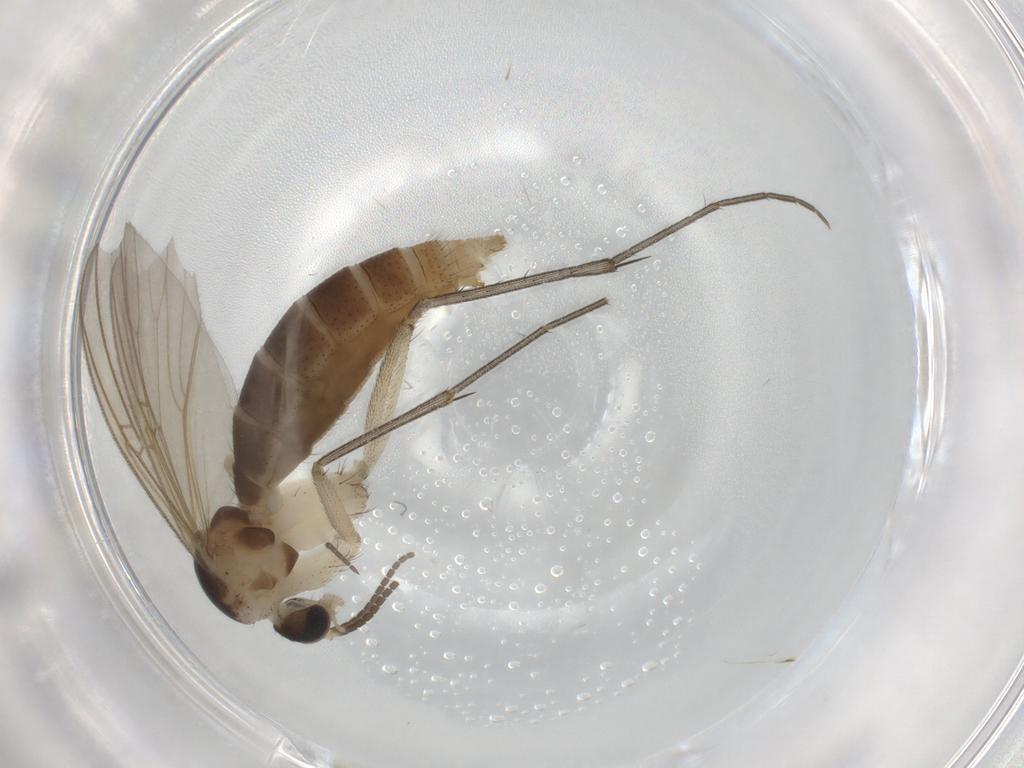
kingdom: Animalia
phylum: Arthropoda
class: Insecta
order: Diptera
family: Mycetophilidae
